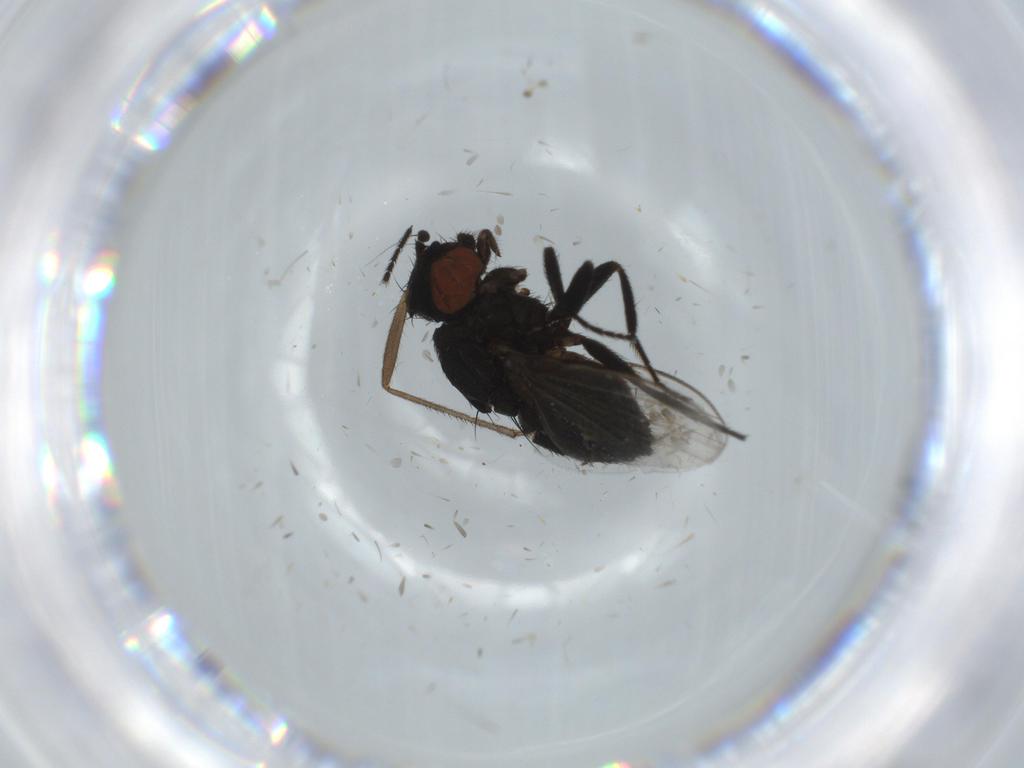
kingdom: Animalia
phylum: Arthropoda
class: Insecta
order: Diptera
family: Milichiidae
